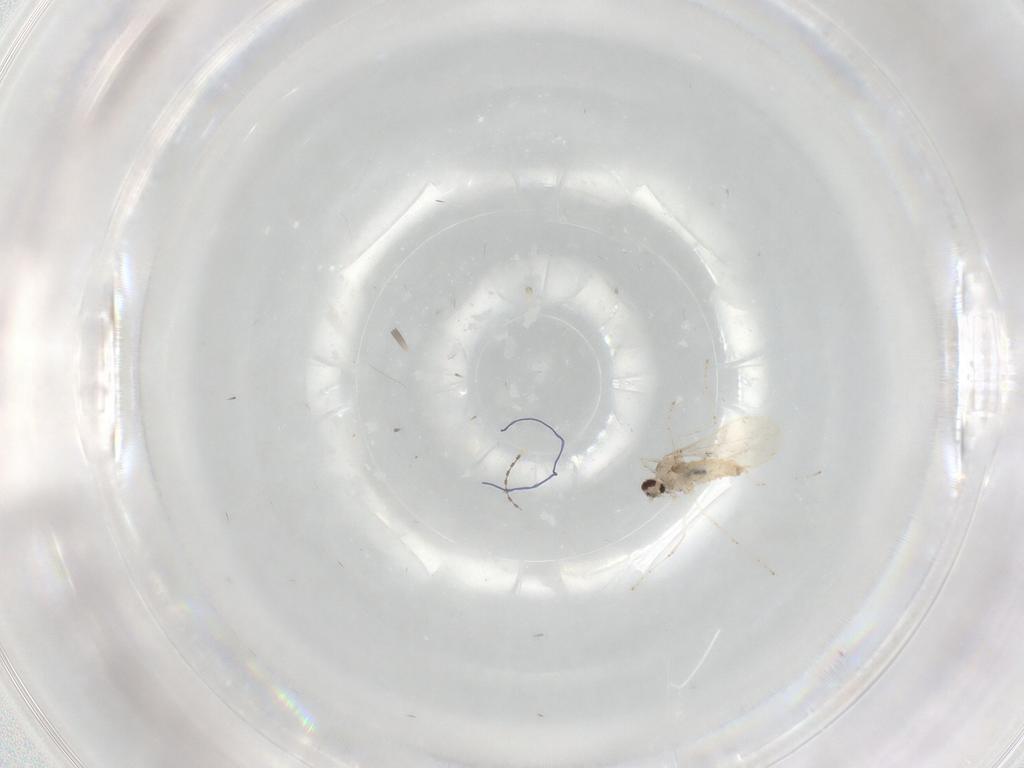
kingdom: Animalia
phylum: Arthropoda
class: Insecta
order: Diptera
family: Cecidomyiidae
